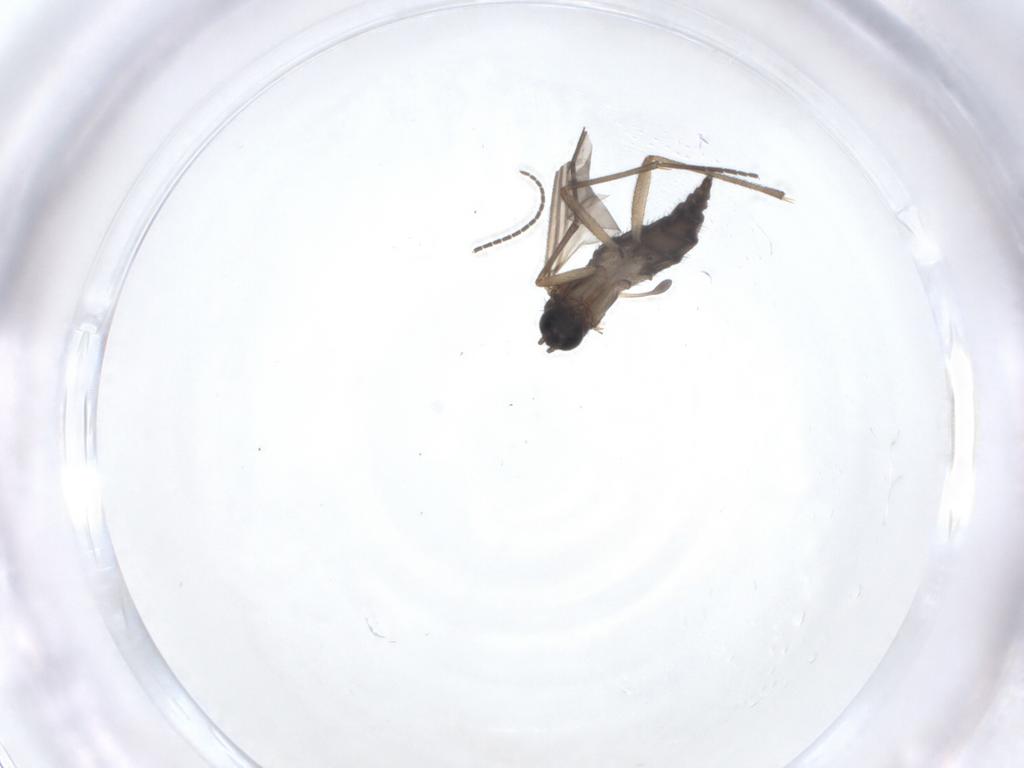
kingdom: Animalia
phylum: Arthropoda
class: Insecta
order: Diptera
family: Sciaridae
